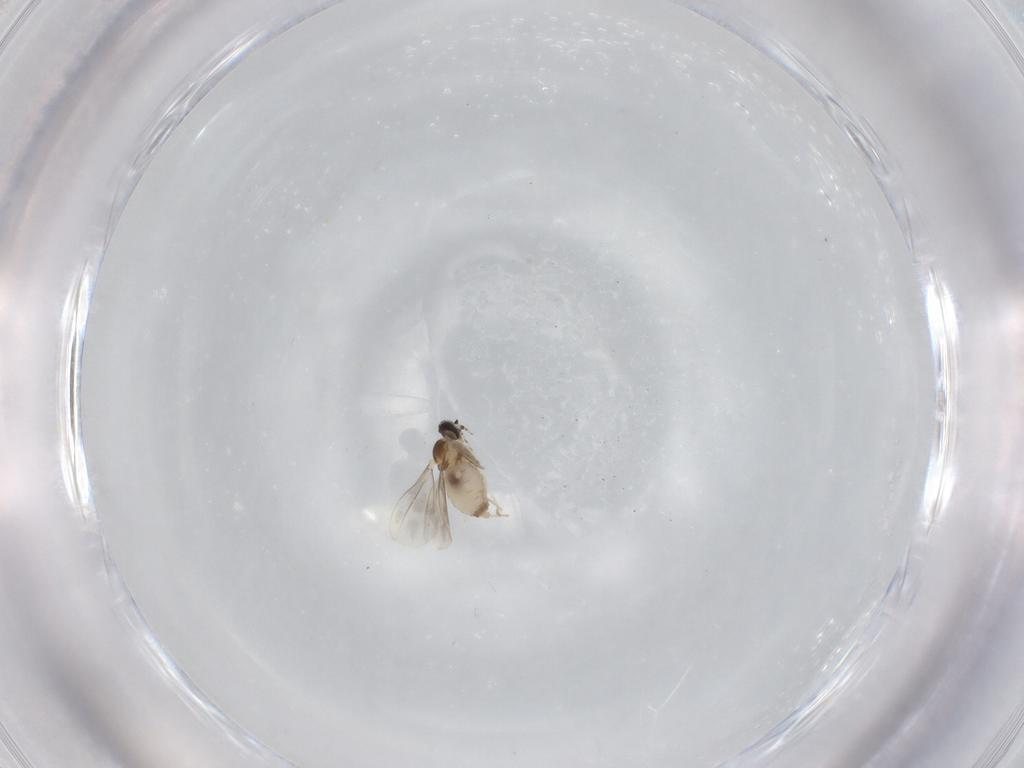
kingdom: Animalia
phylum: Arthropoda
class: Insecta
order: Diptera
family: Cecidomyiidae
